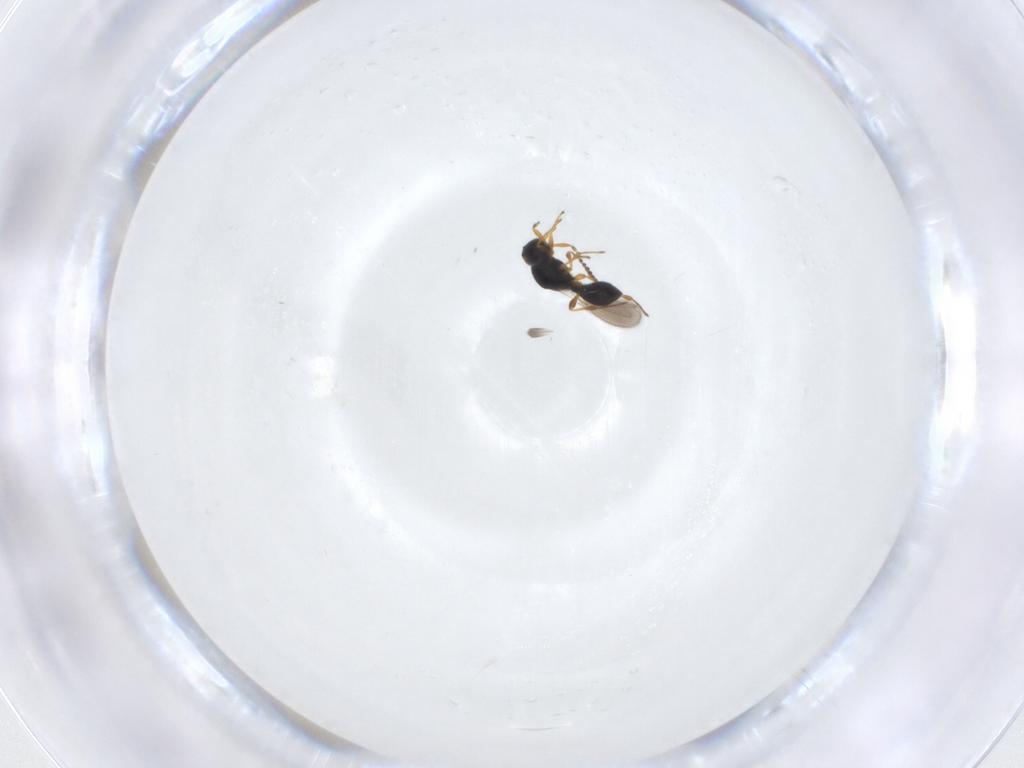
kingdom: Animalia
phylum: Arthropoda
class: Insecta
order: Hymenoptera
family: Platygastridae
